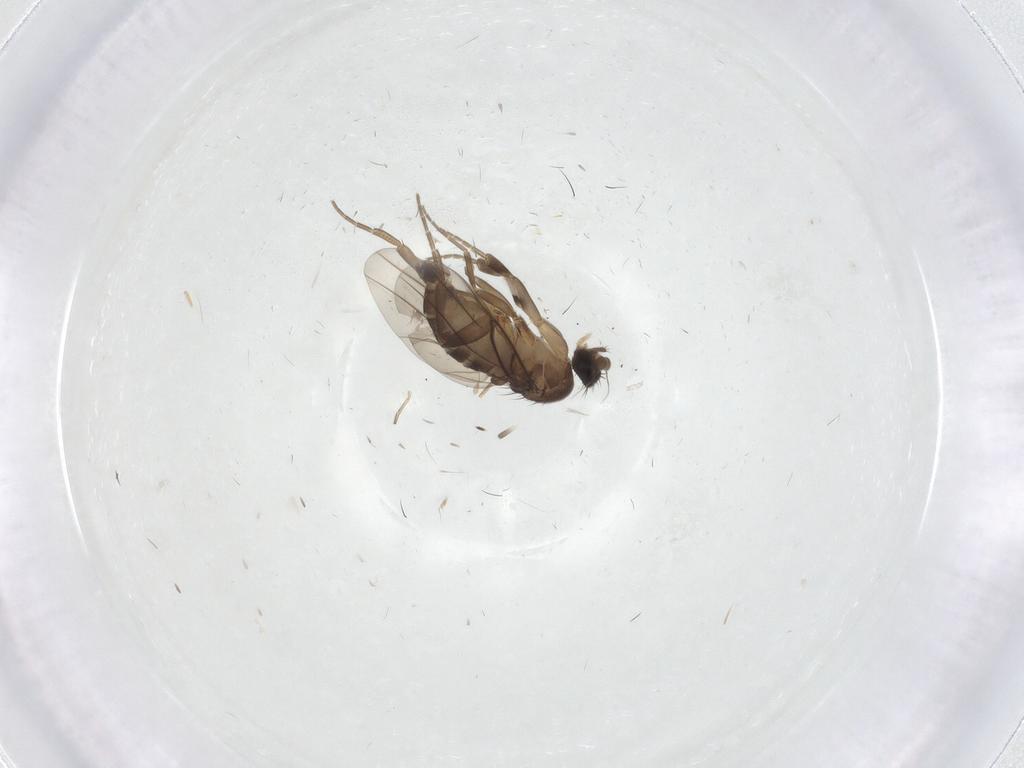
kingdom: Animalia
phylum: Arthropoda
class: Insecta
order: Diptera
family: Phoridae
